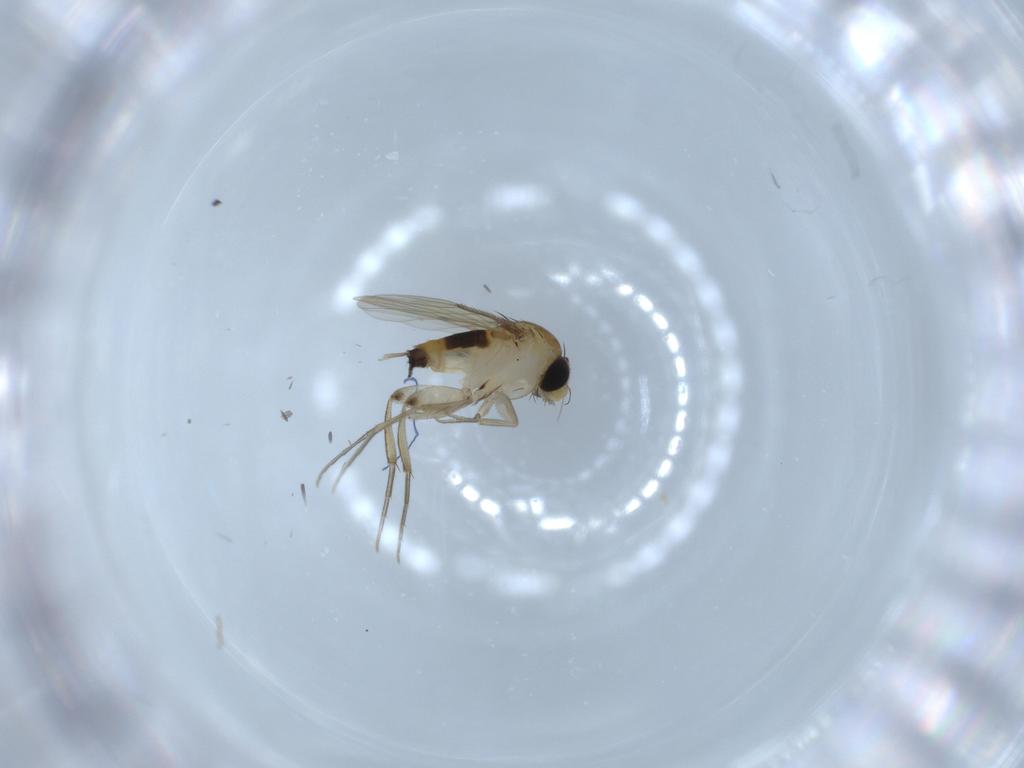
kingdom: Animalia
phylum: Arthropoda
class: Insecta
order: Diptera
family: Phoridae
